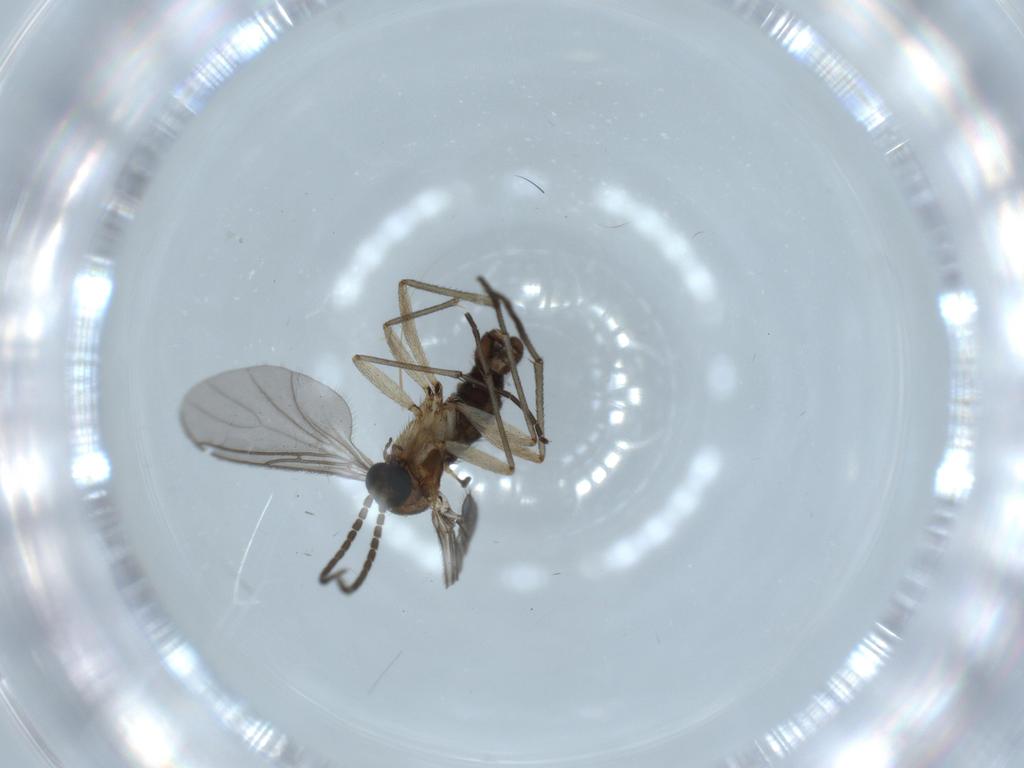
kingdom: Animalia
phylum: Arthropoda
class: Insecta
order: Diptera
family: Sciaridae
